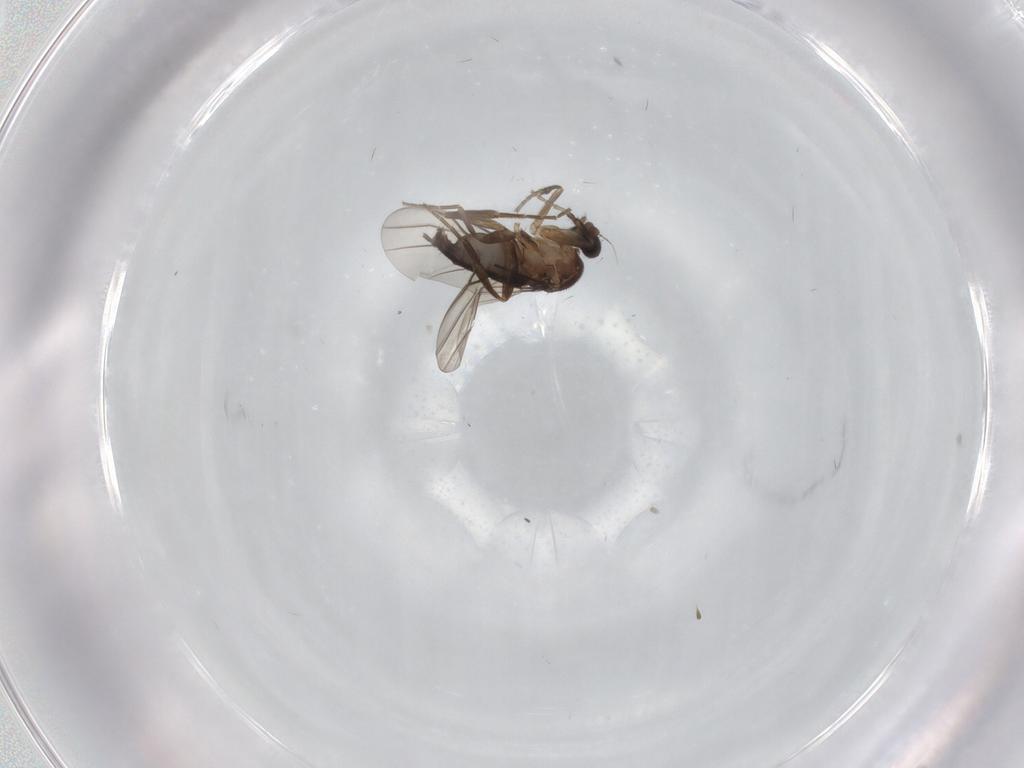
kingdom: Animalia
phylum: Arthropoda
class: Insecta
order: Diptera
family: Phoridae
